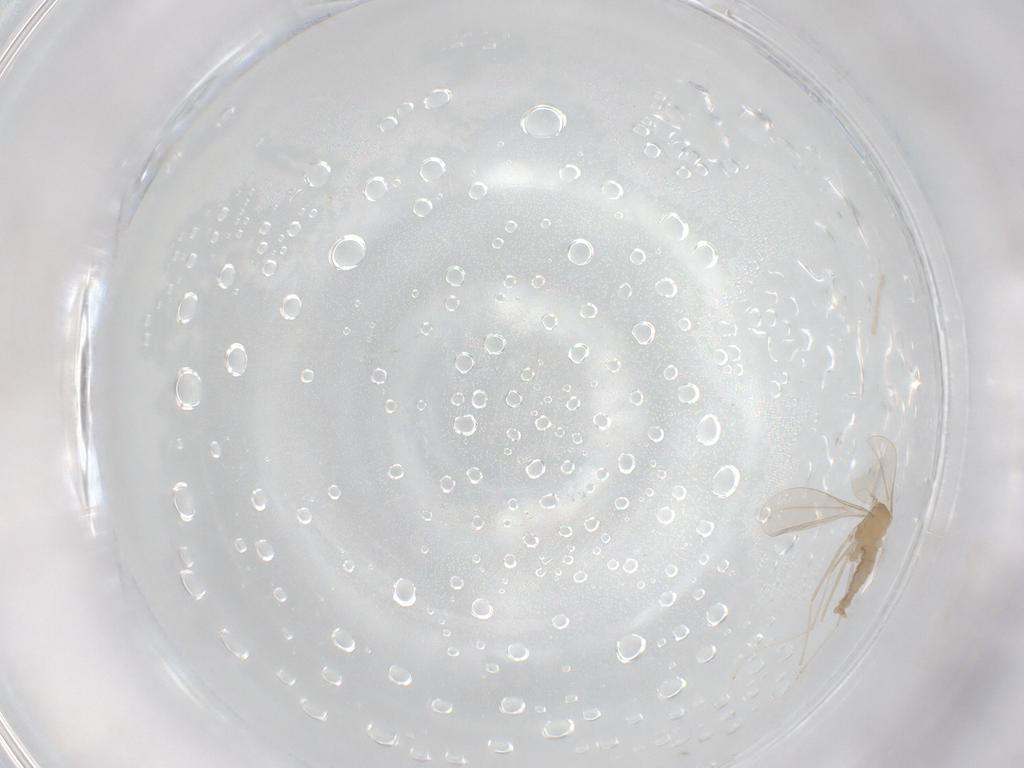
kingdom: Animalia
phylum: Arthropoda
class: Insecta
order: Diptera
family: Cecidomyiidae
